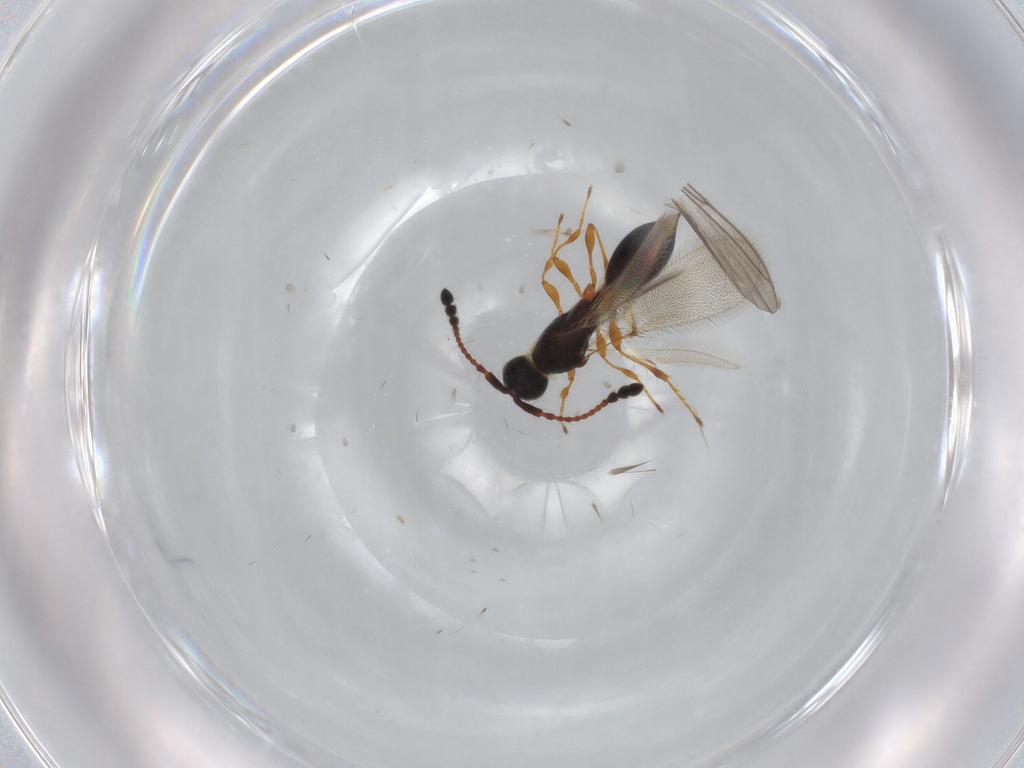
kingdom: Animalia
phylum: Arthropoda
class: Insecta
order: Hymenoptera
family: Diapriidae
